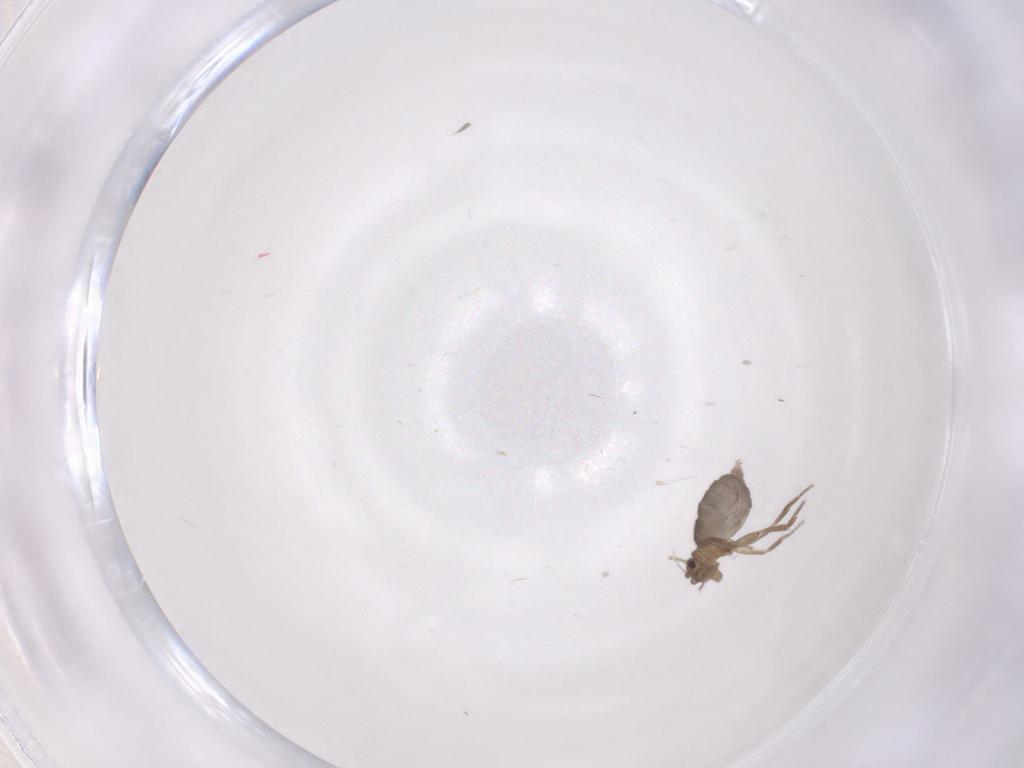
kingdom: Animalia
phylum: Arthropoda
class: Insecta
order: Diptera
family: Phoridae
